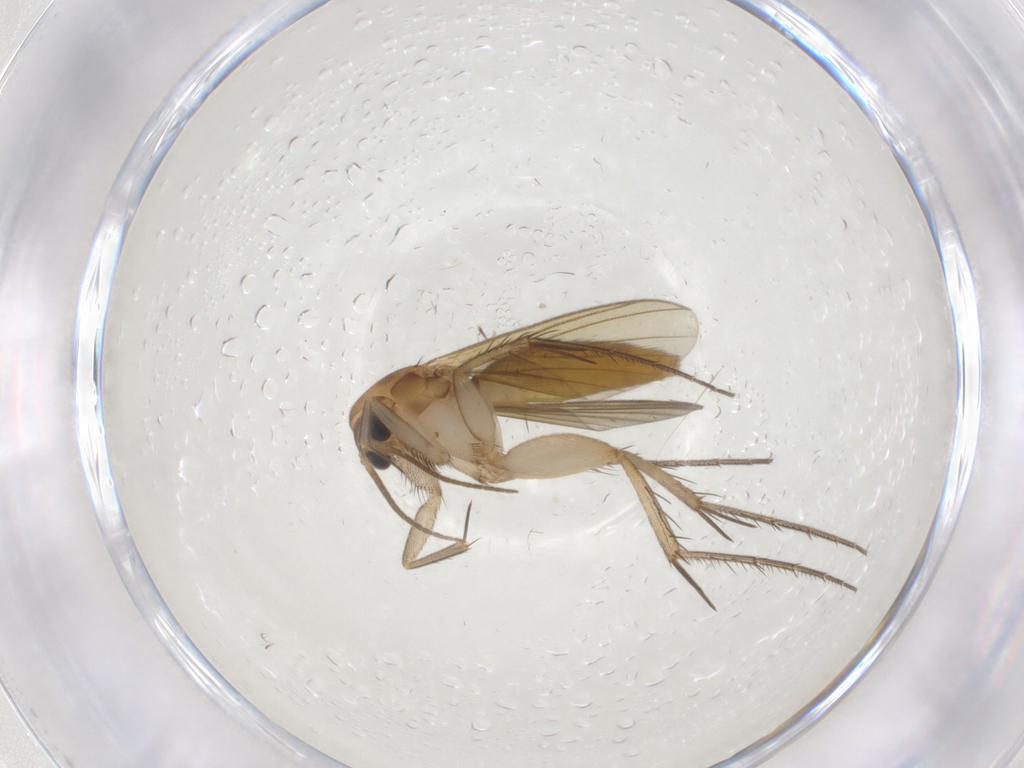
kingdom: Animalia
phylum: Arthropoda
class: Insecta
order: Diptera
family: Mycetophilidae
